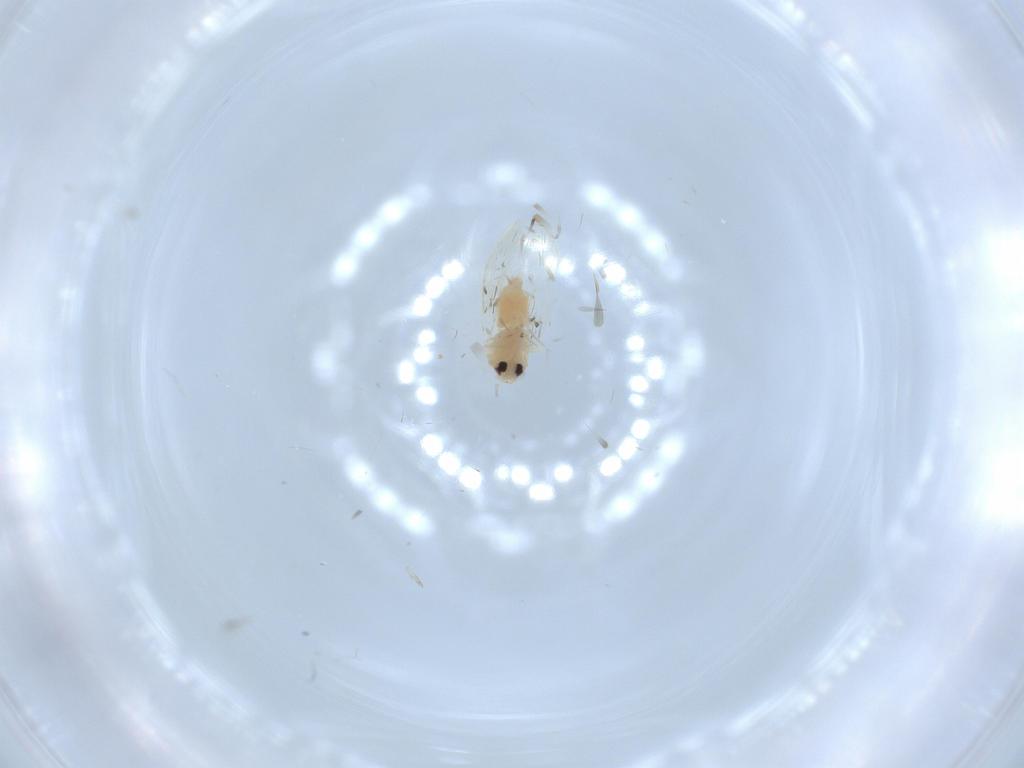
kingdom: Animalia
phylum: Arthropoda
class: Insecta
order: Hemiptera
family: Aleyrodidae
